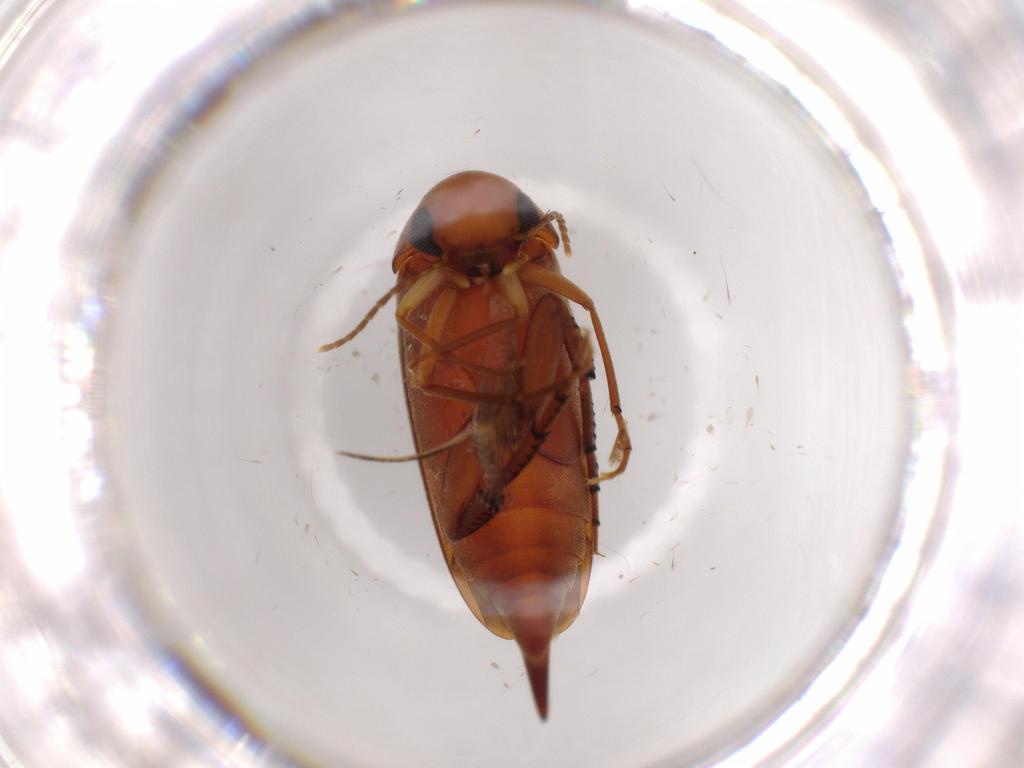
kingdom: Animalia
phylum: Arthropoda
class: Insecta
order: Coleoptera
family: Mordellidae
